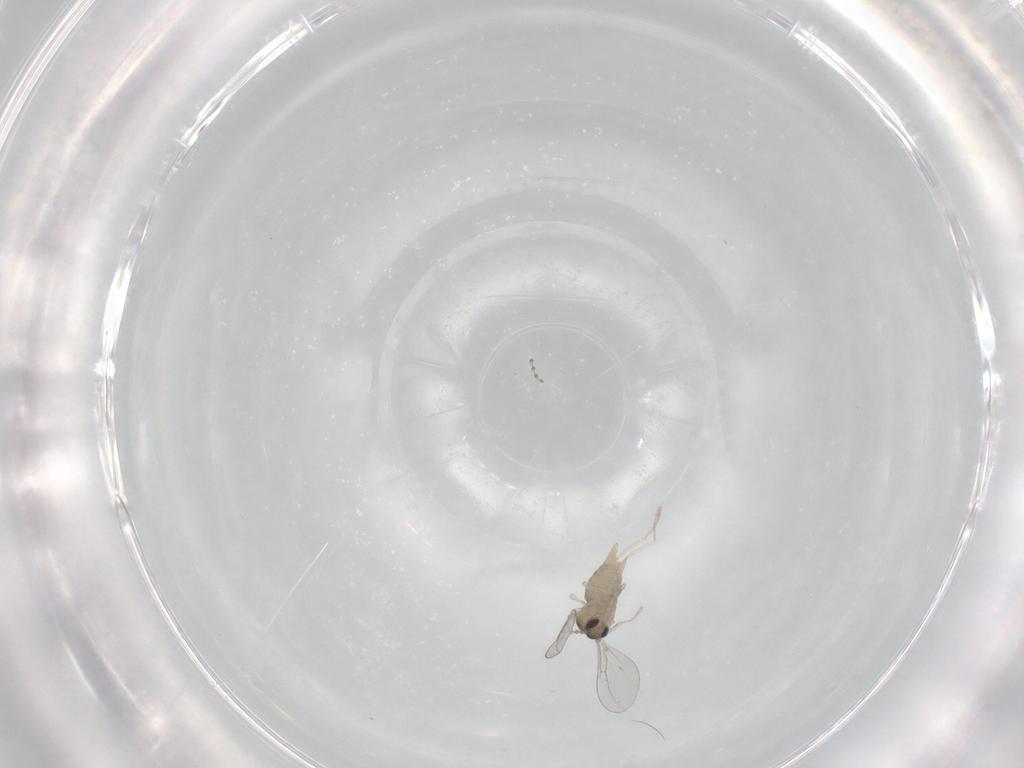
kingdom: Animalia
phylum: Arthropoda
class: Insecta
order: Diptera
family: Cecidomyiidae
